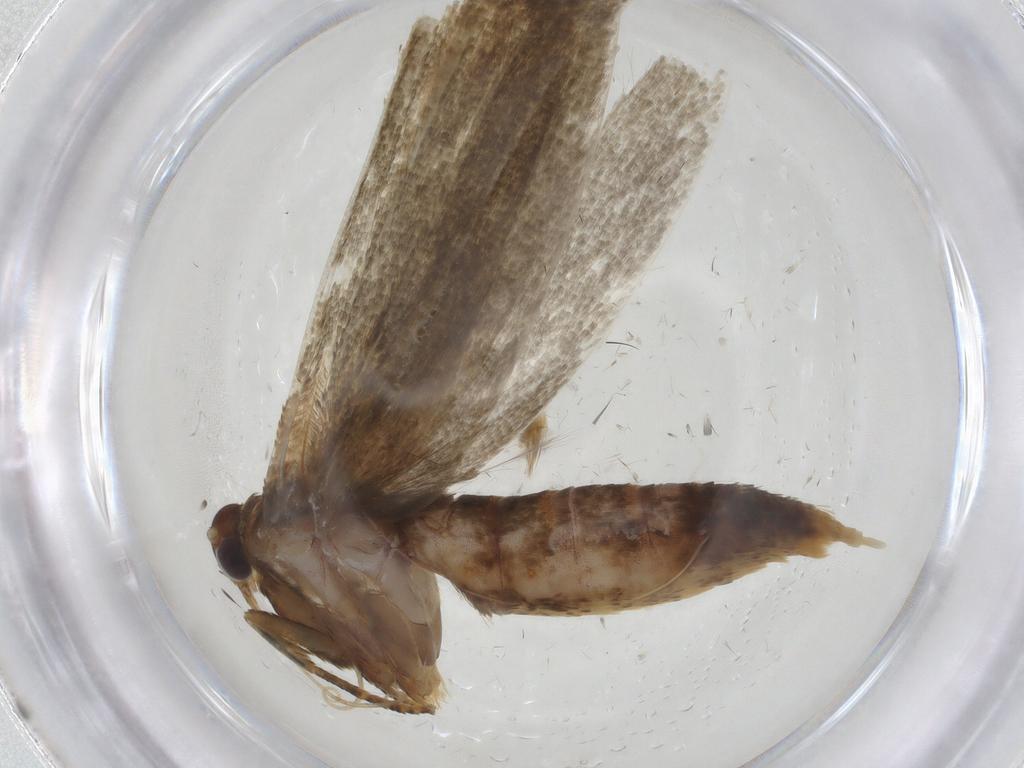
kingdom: Animalia
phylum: Arthropoda
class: Insecta
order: Lepidoptera
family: Blastobasidae
